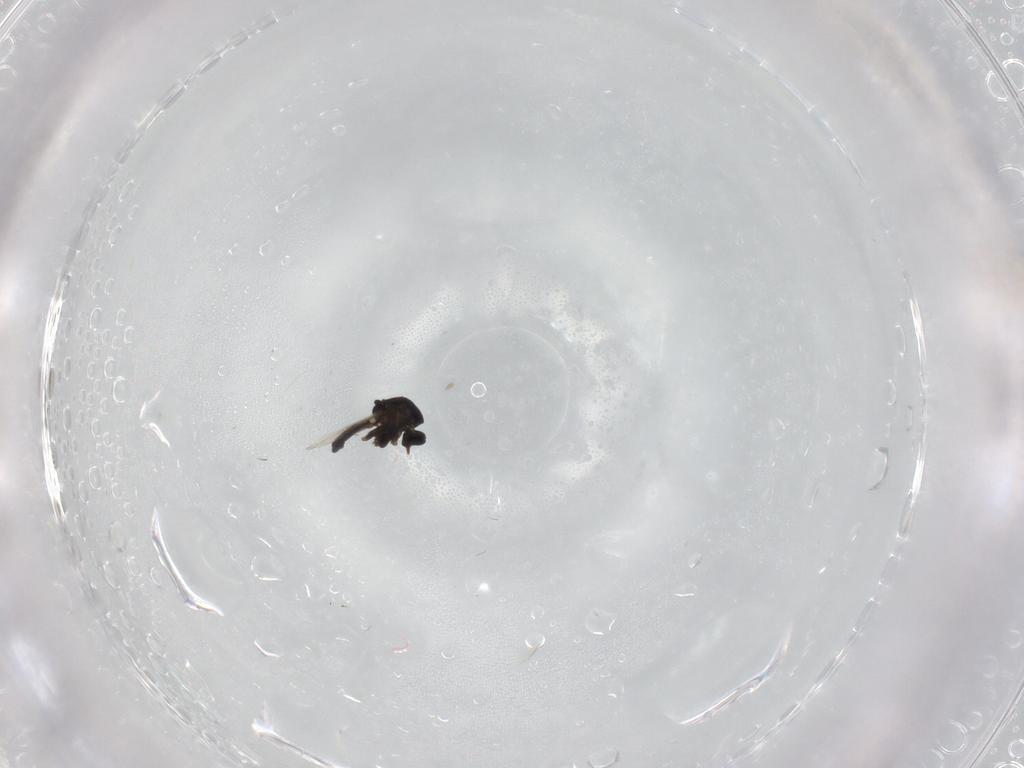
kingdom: Animalia
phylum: Arthropoda
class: Insecta
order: Diptera
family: Ceratopogonidae
